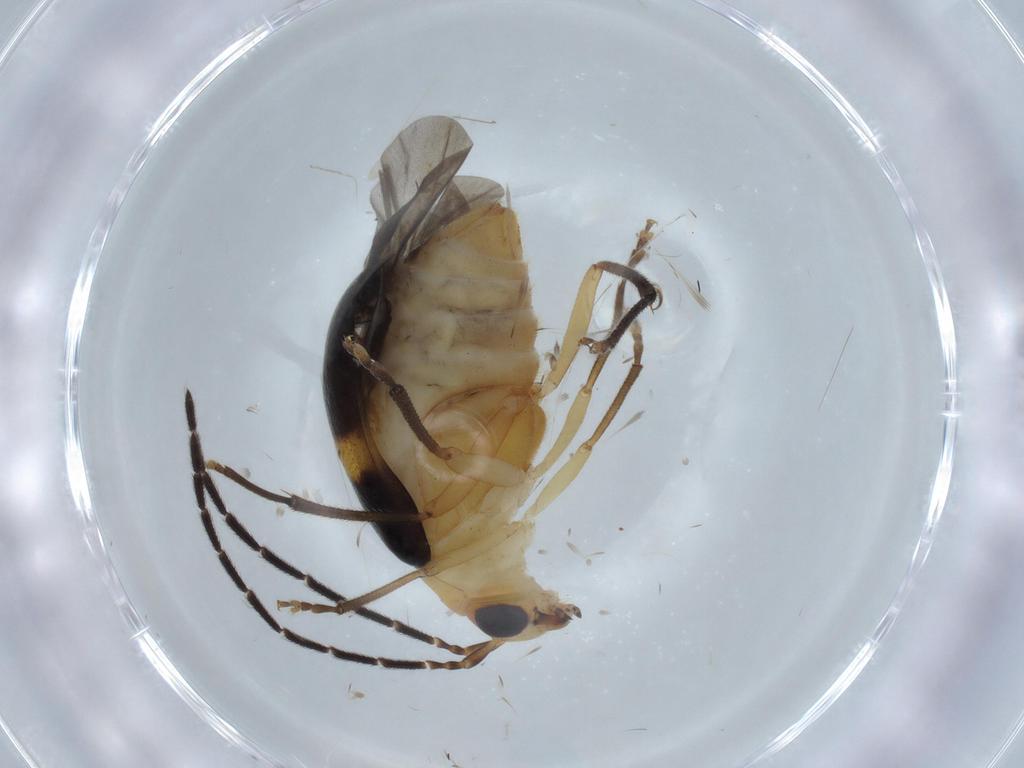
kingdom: Animalia
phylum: Arthropoda
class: Insecta
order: Coleoptera
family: Chrysomelidae
